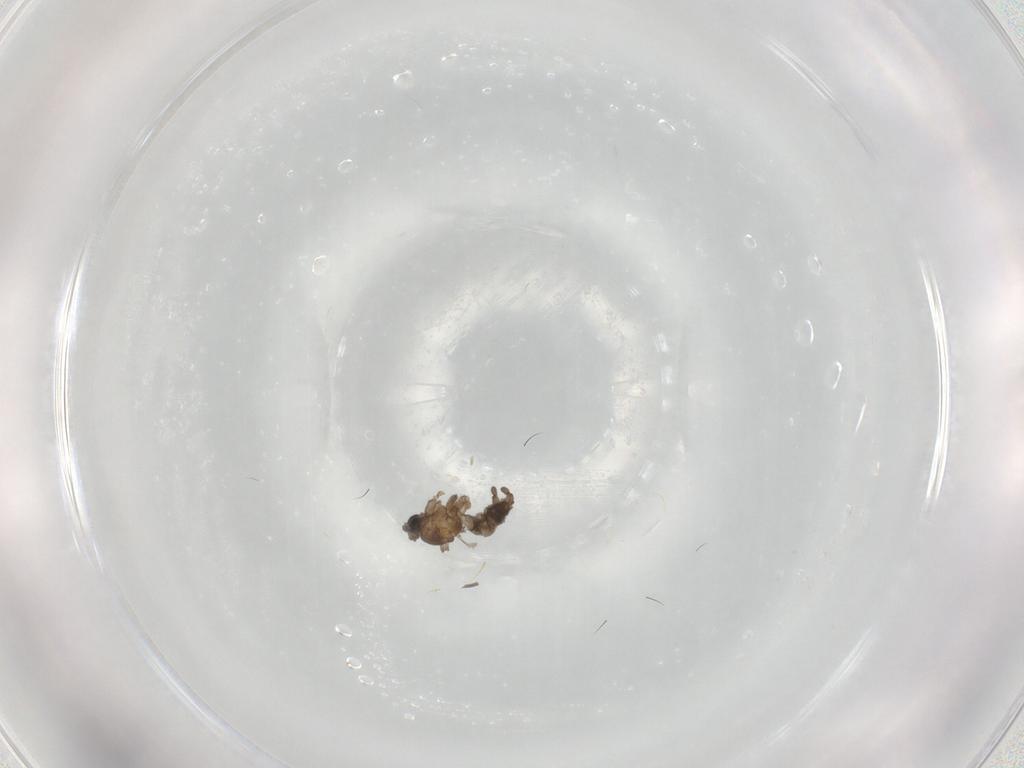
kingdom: Animalia
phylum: Arthropoda
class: Insecta
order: Diptera
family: Sciaridae
